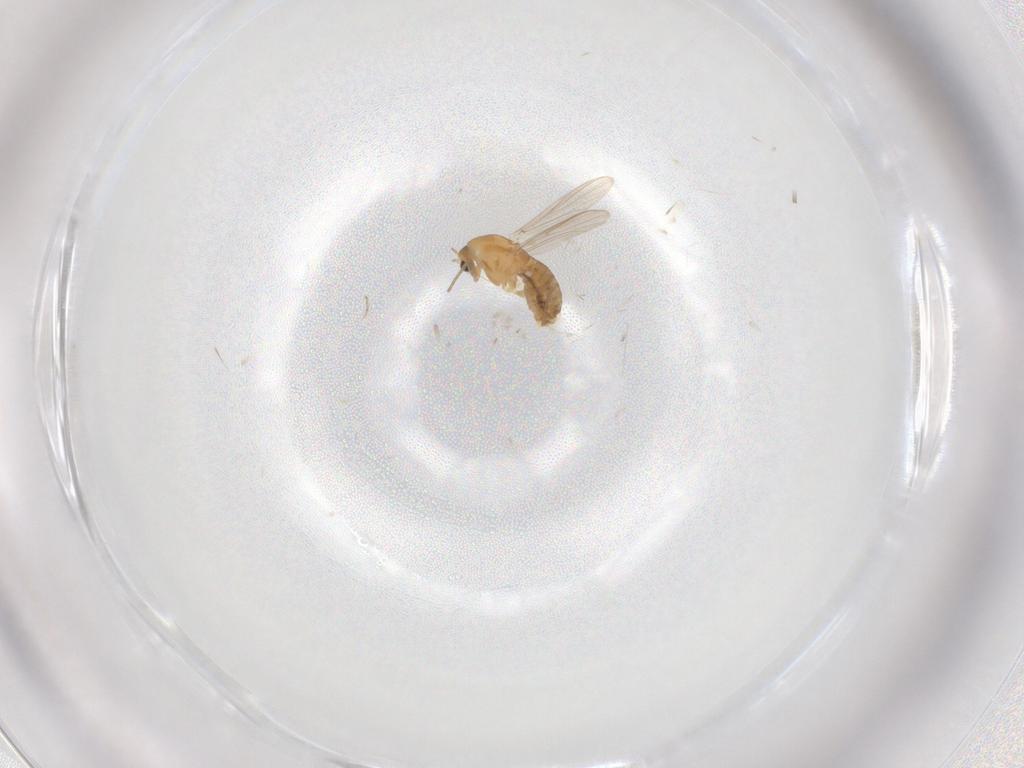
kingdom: Animalia
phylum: Arthropoda
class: Insecta
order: Diptera
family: Chironomidae
